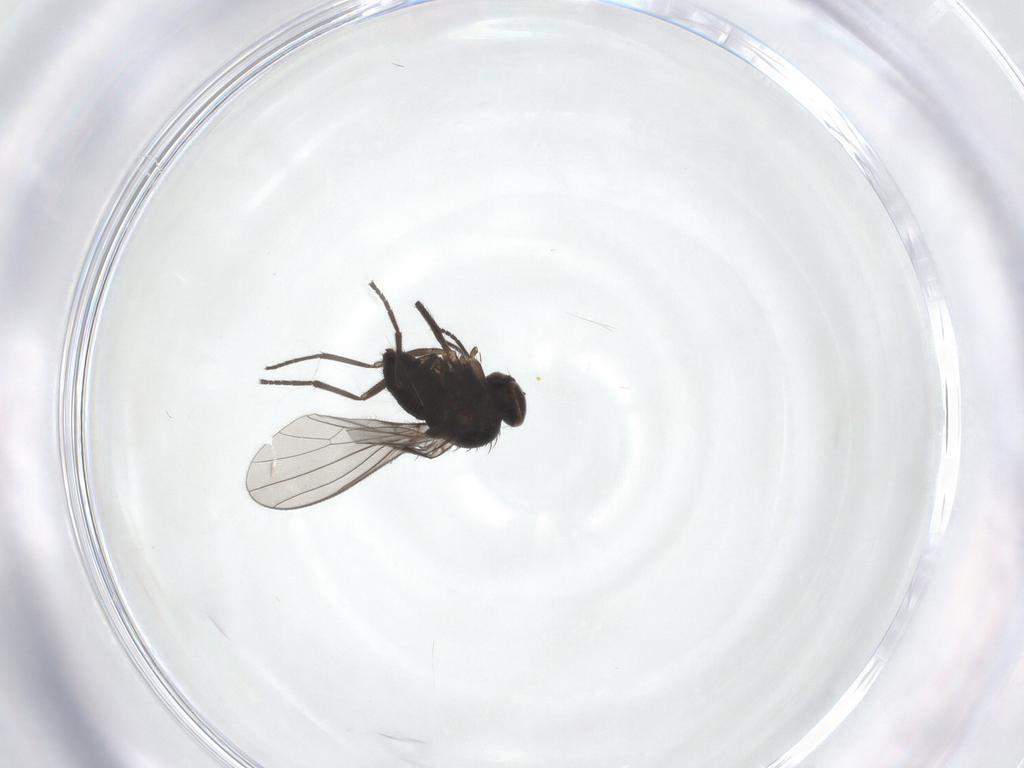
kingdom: Animalia
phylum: Arthropoda
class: Insecta
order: Diptera
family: Dolichopodidae
